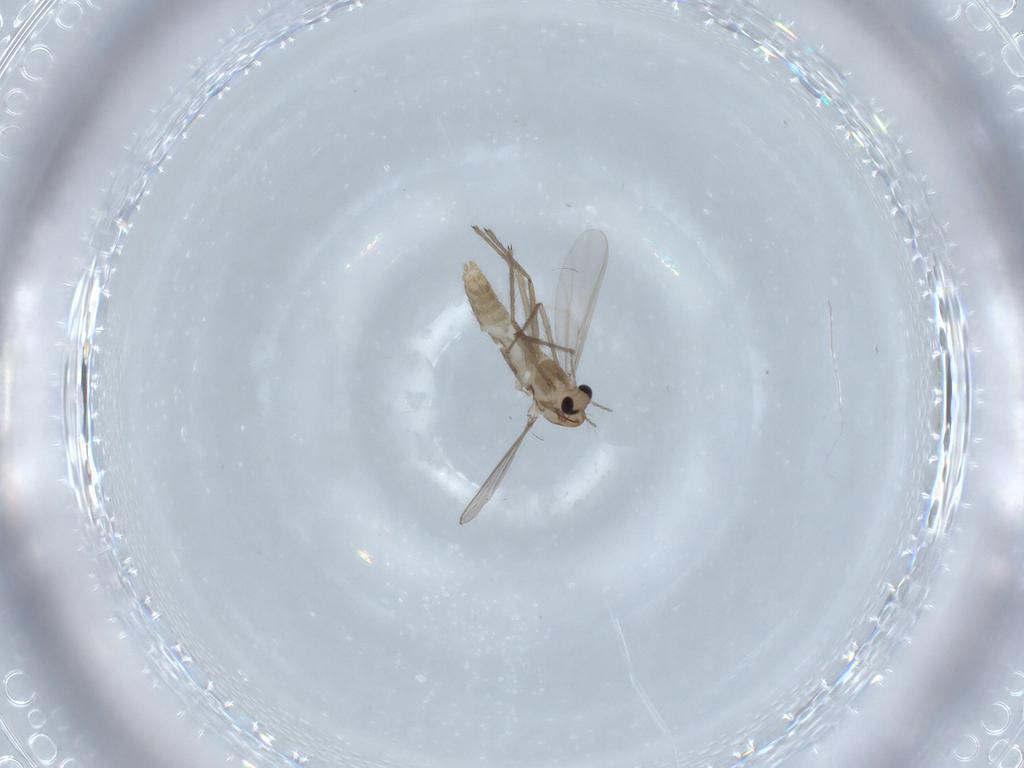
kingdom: Animalia
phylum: Arthropoda
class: Insecta
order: Diptera
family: Chironomidae
